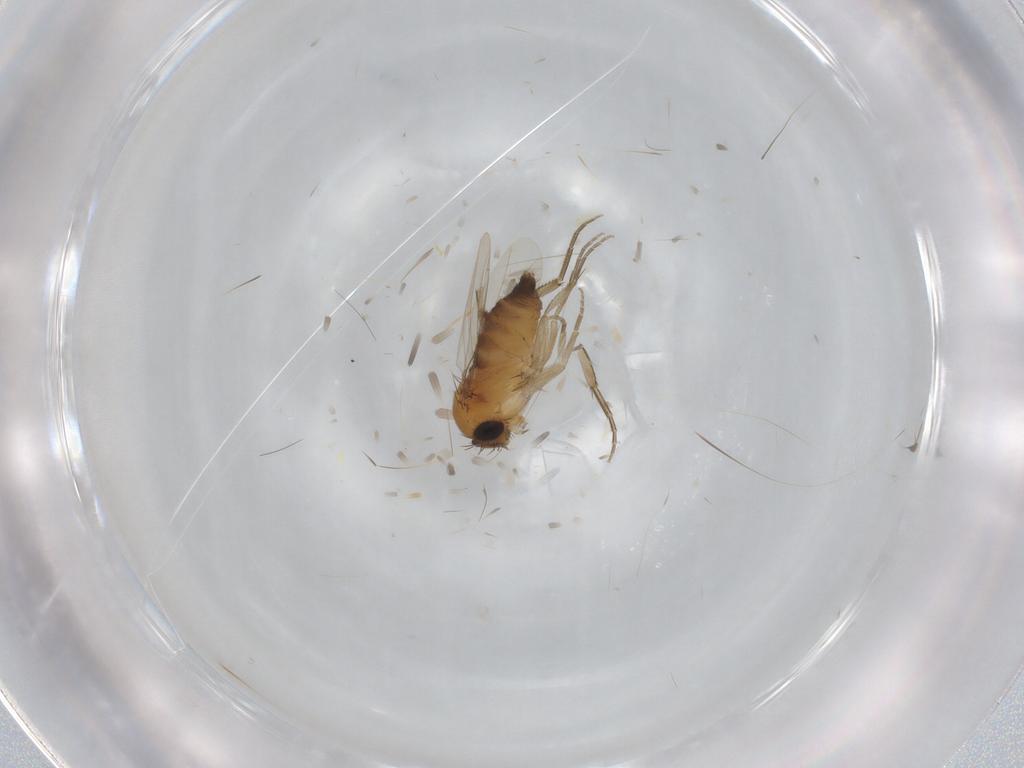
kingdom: Animalia
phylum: Arthropoda
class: Insecta
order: Diptera
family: Phoridae
